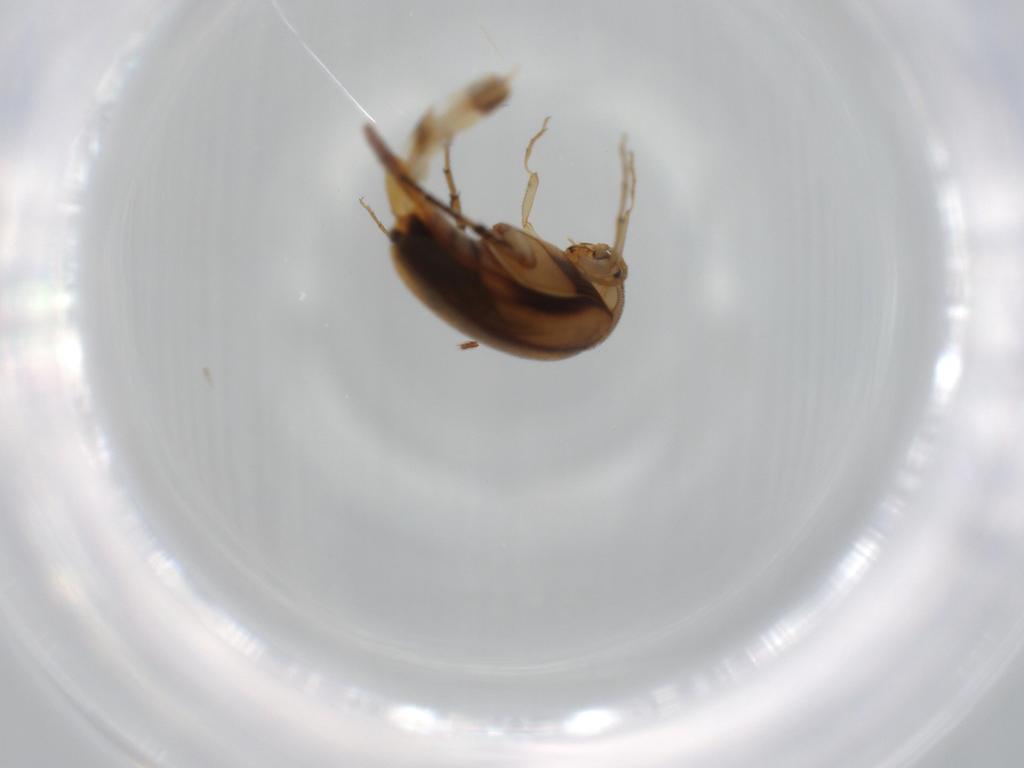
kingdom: Animalia
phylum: Arthropoda
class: Insecta
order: Coleoptera
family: Mordellidae
